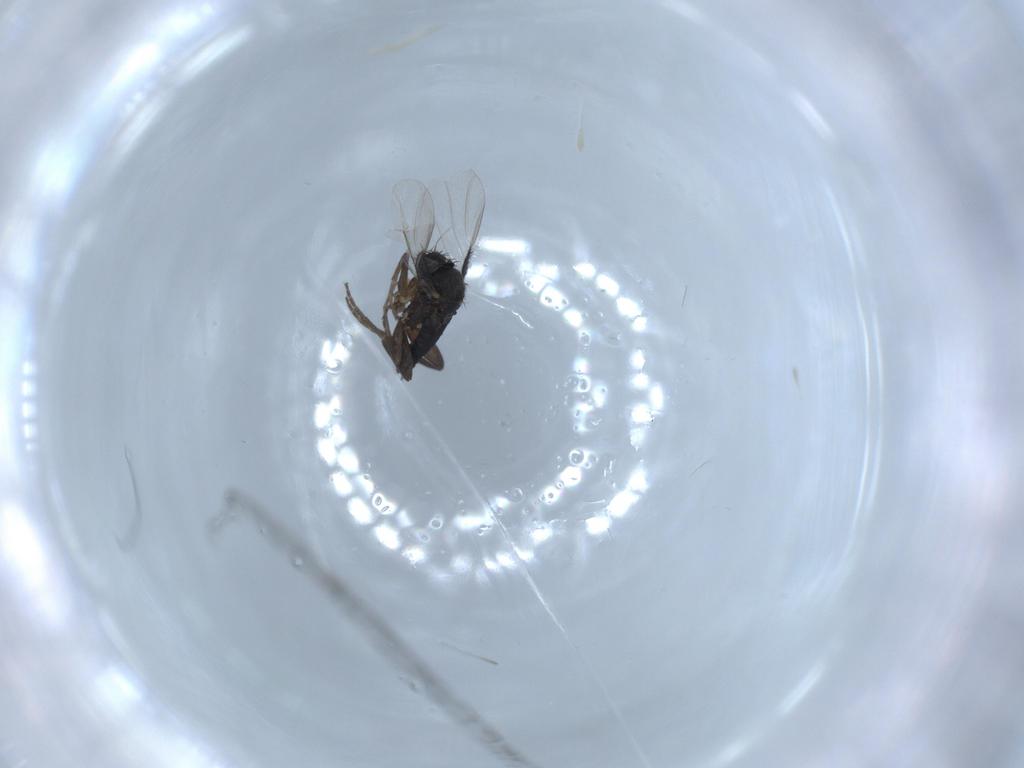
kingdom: Animalia
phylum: Arthropoda
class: Insecta
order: Diptera
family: Phoridae
